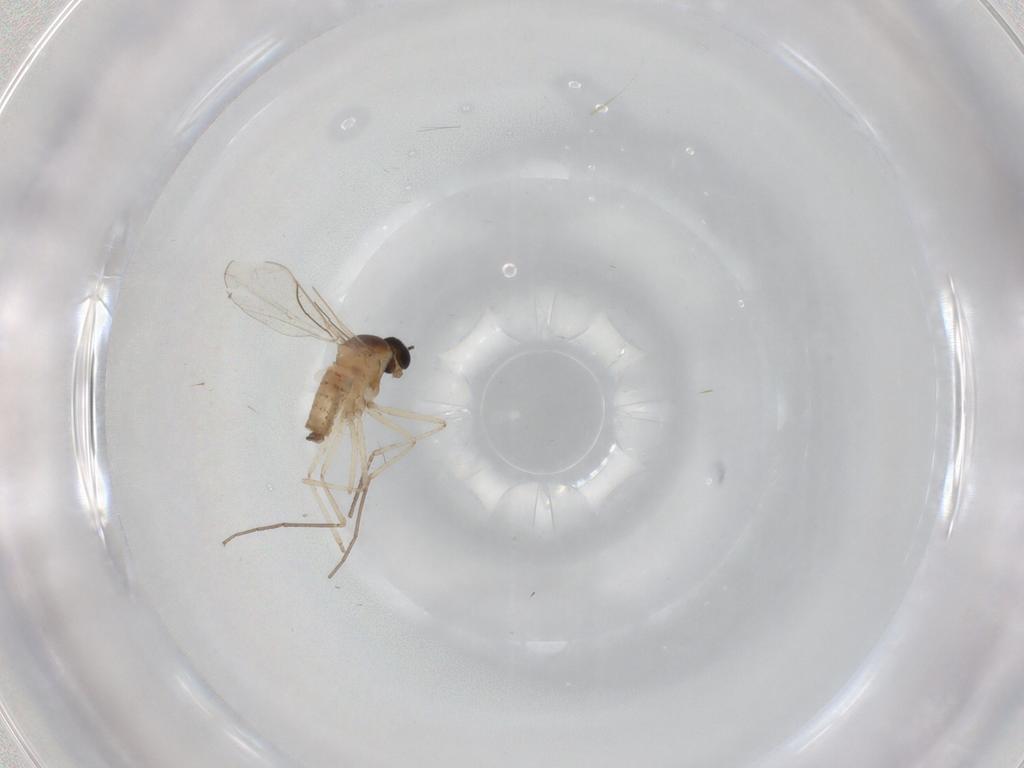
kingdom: Animalia
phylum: Arthropoda
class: Insecta
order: Diptera
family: Cecidomyiidae
